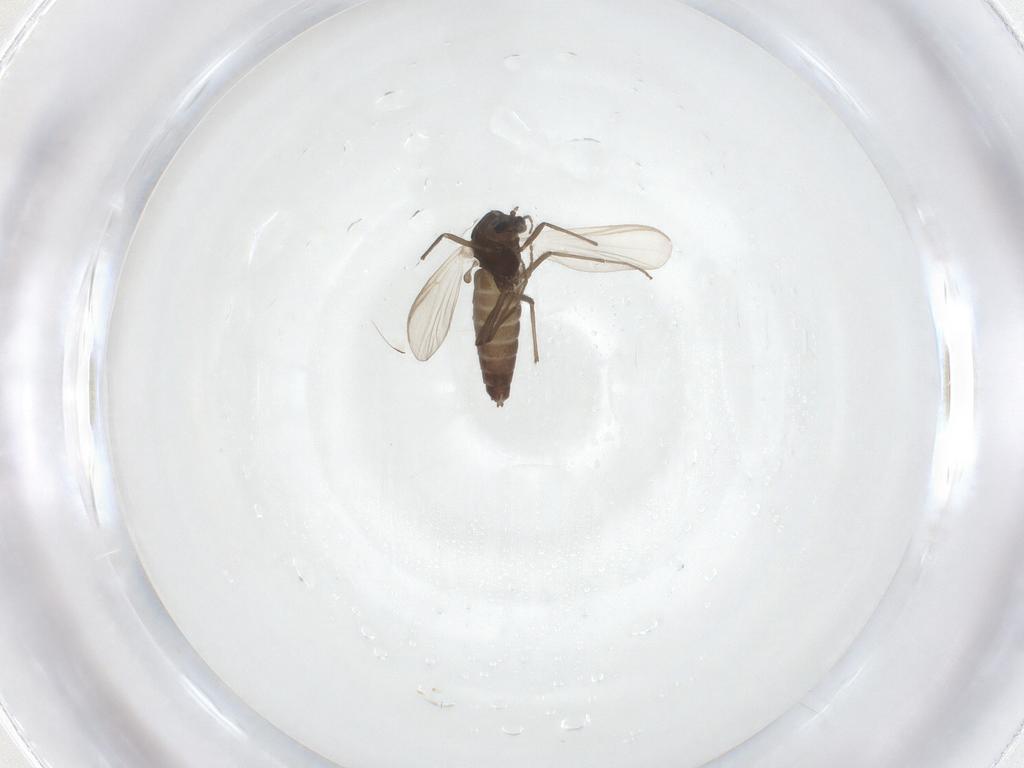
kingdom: Animalia
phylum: Arthropoda
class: Insecta
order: Diptera
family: Chironomidae
